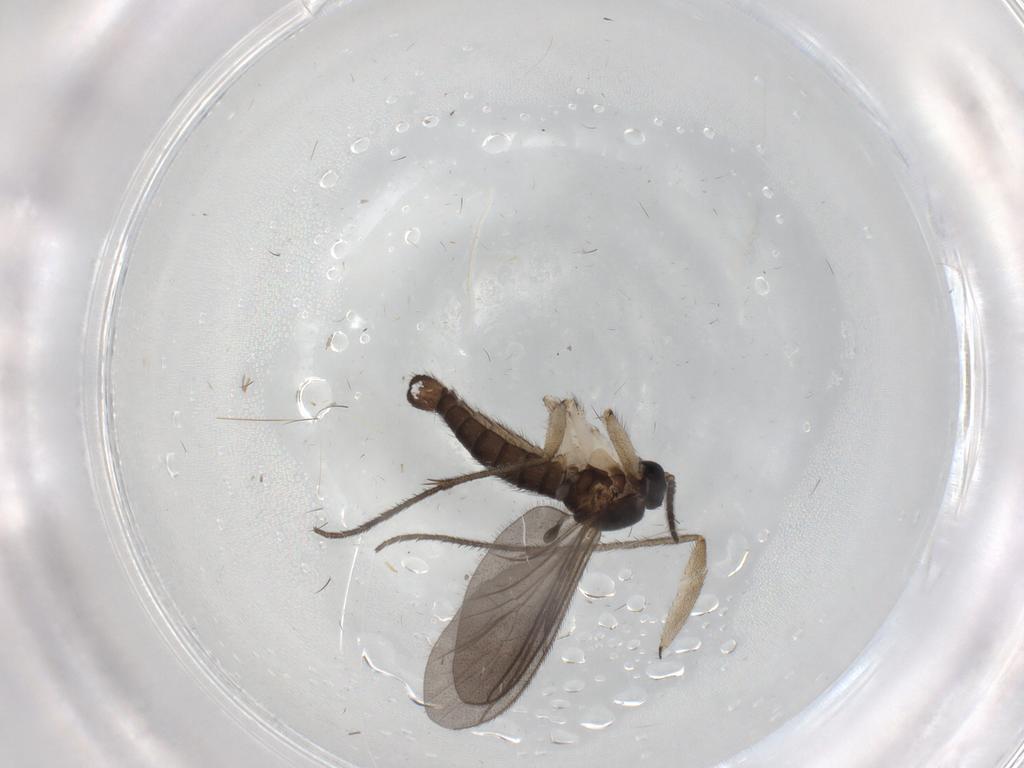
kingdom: Animalia
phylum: Arthropoda
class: Insecta
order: Diptera
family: Sciaridae
